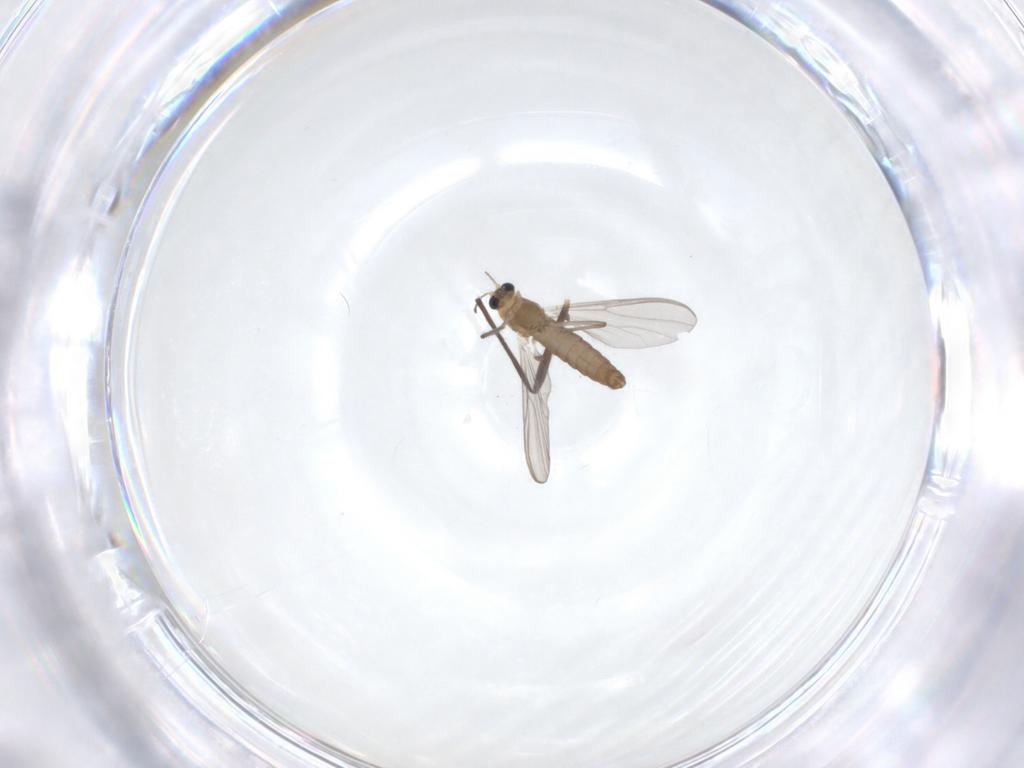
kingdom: Animalia
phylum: Arthropoda
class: Insecta
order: Diptera
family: Chironomidae
